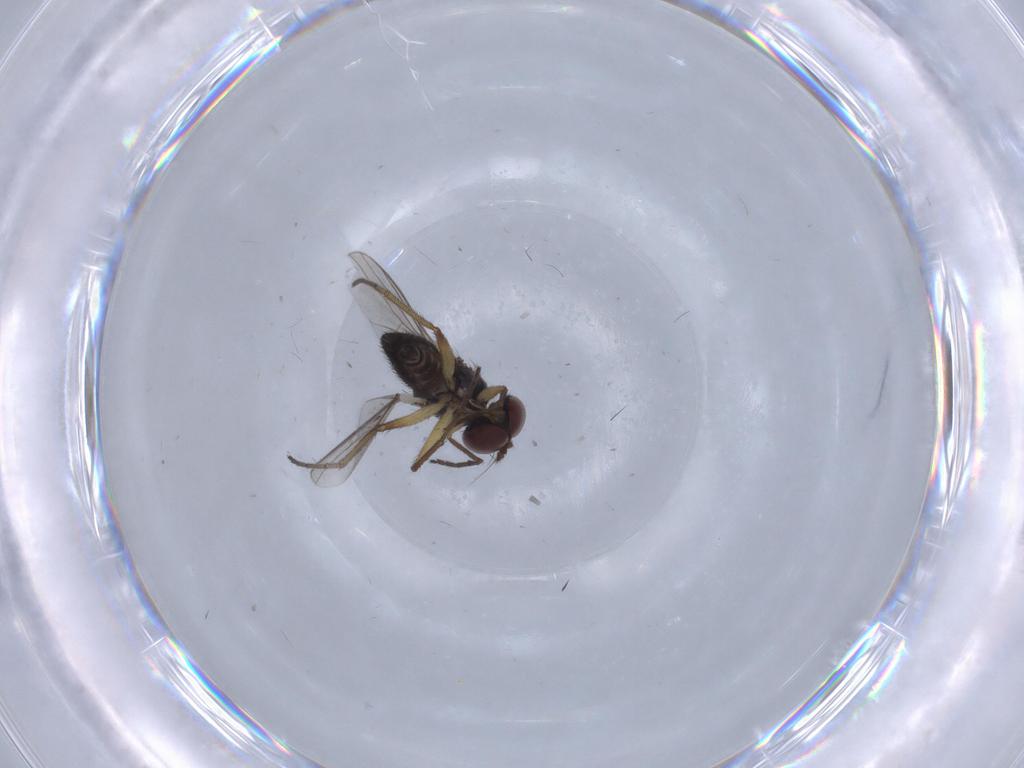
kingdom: Animalia
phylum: Arthropoda
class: Insecta
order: Diptera
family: Dolichopodidae
